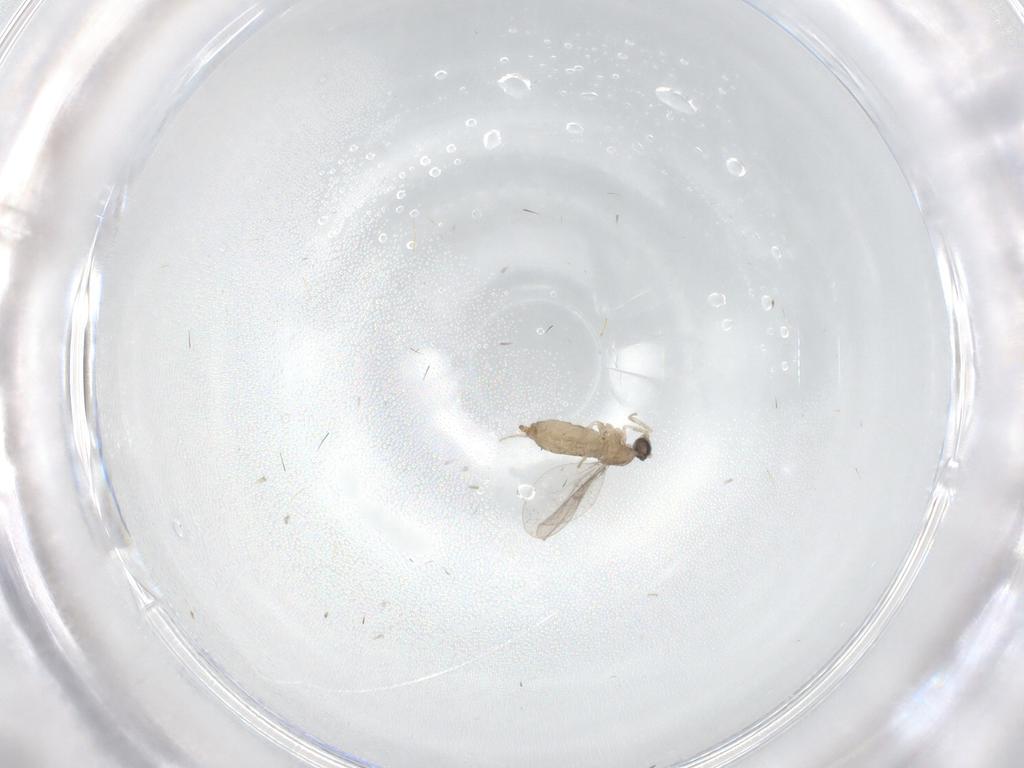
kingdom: Animalia
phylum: Arthropoda
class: Insecta
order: Diptera
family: Cecidomyiidae
